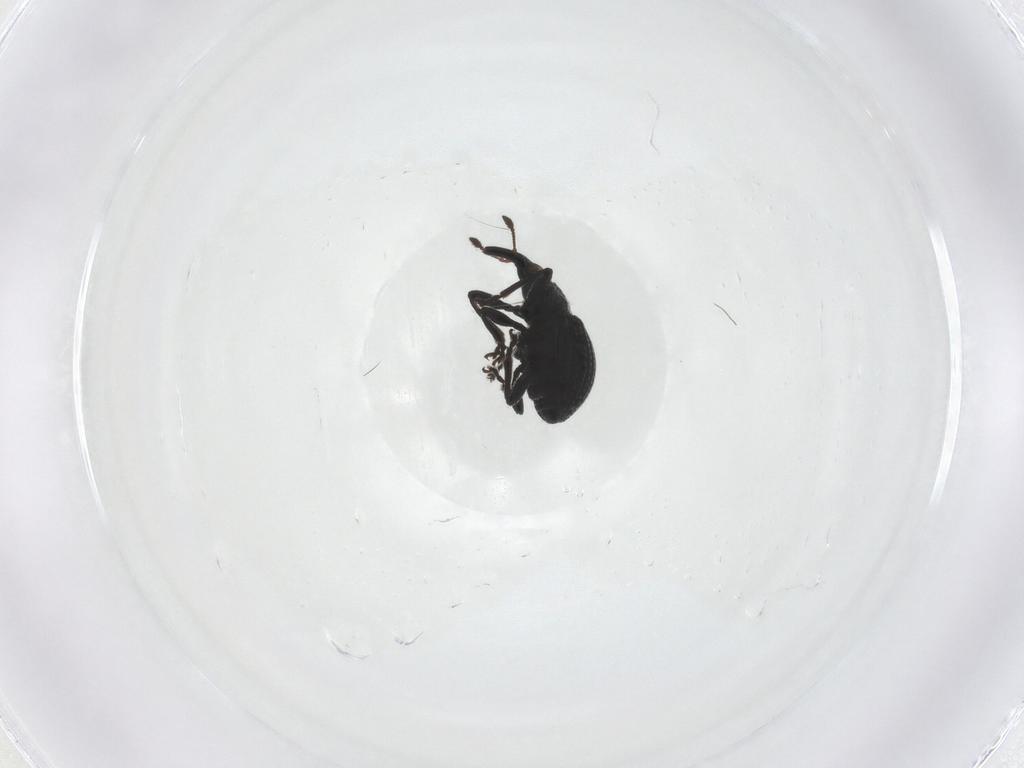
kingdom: Animalia
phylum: Arthropoda
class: Insecta
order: Coleoptera
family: Brentidae
